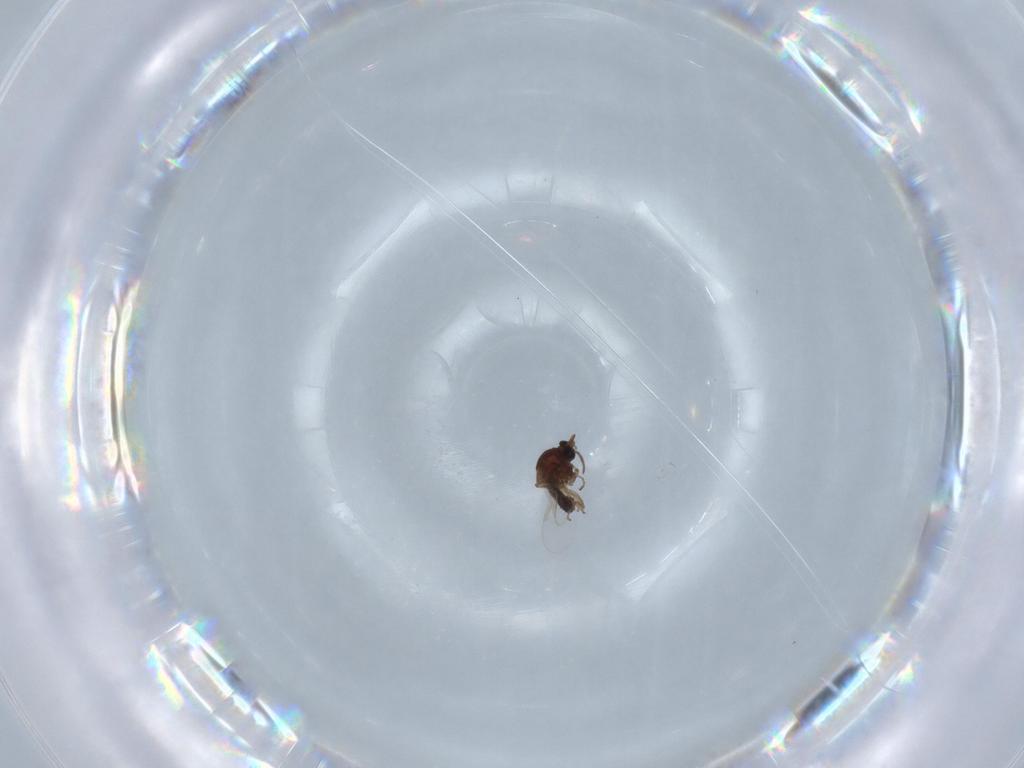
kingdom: Animalia
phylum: Arthropoda
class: Insecta
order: Diptera
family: Ceratopogonidae
